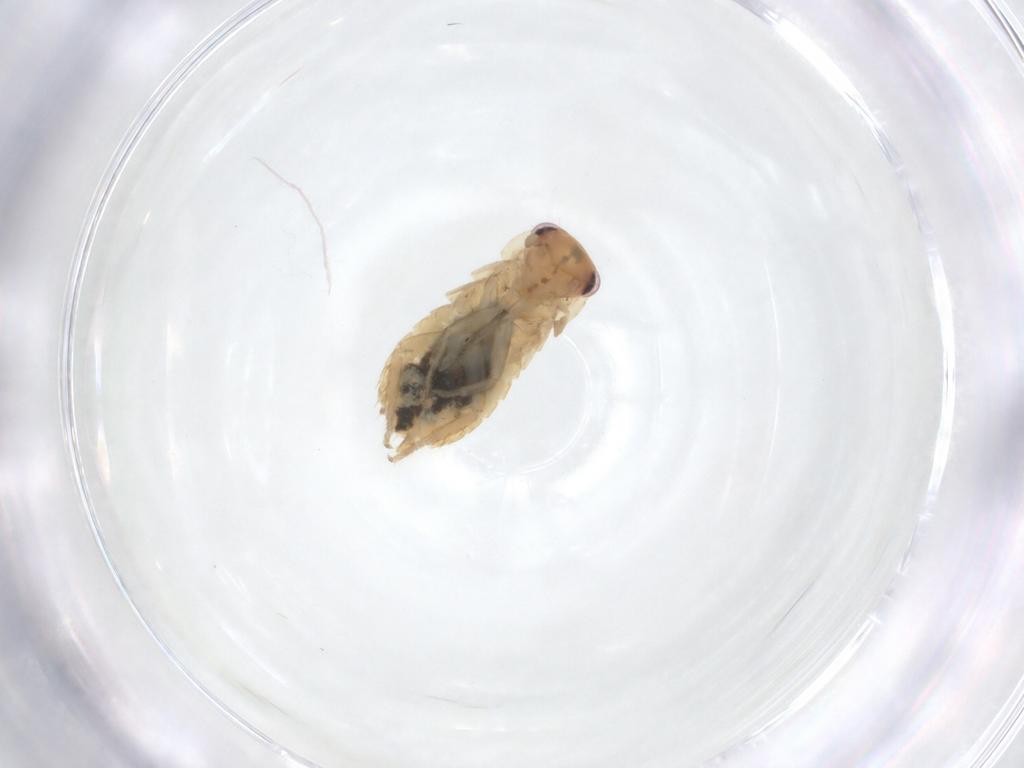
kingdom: Animalia
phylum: Arthropoda
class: Insecta
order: Blattodea
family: Ectobiidae
